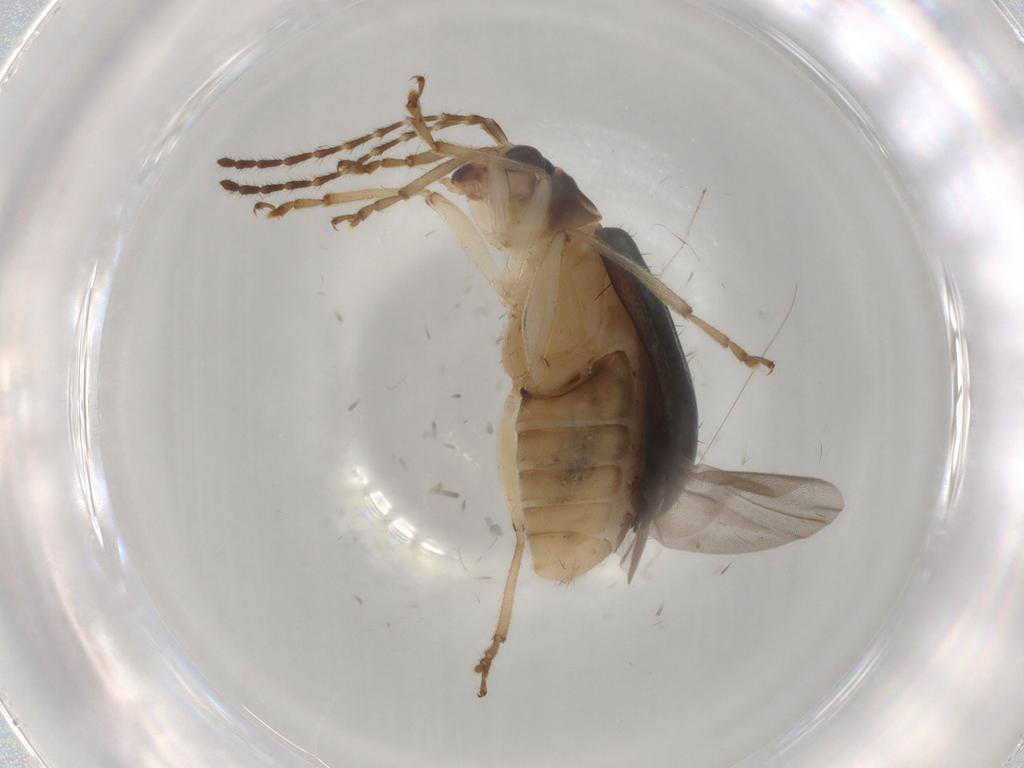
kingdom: Animalia
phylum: Arthropoda
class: Insecta
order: Coleoptera
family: Chrysomelidae
